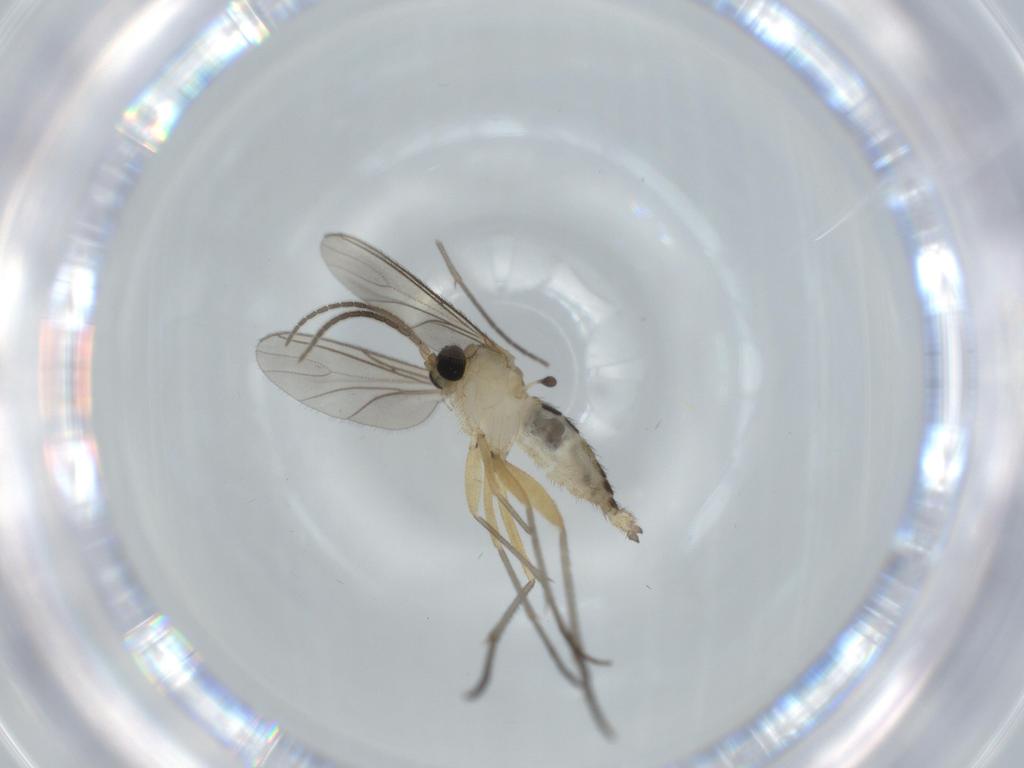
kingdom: Animalia
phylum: Arthropoda
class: Insecta
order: Diptera
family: Sciaridae
